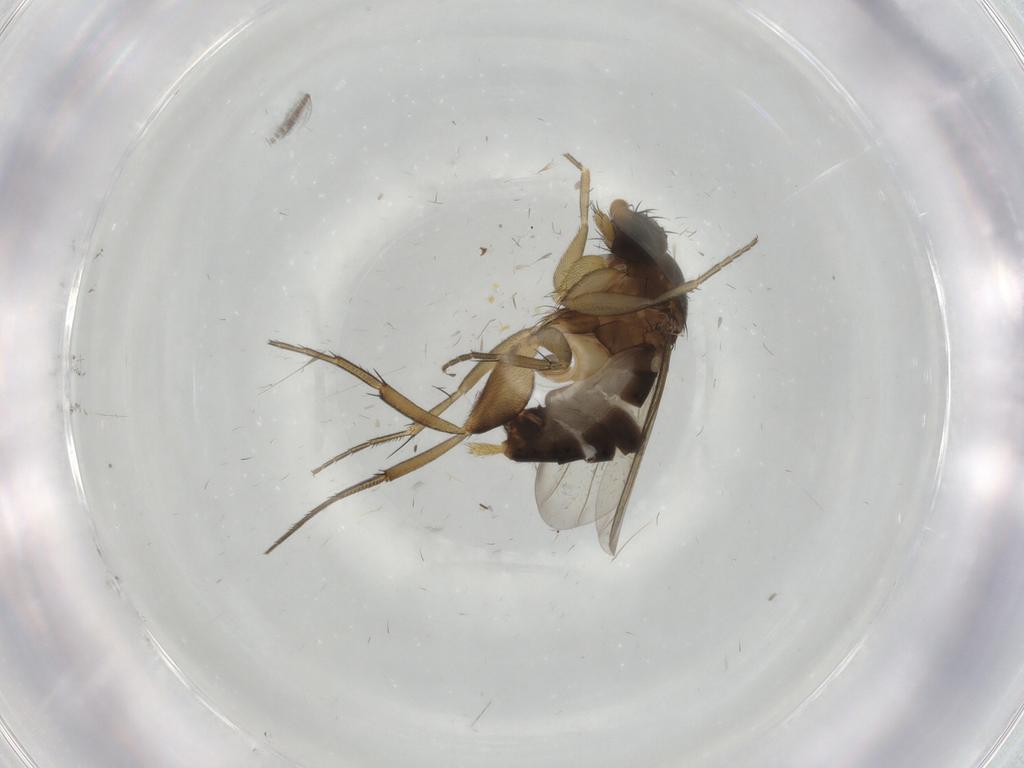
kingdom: Animalia
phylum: Arthropoda
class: Insecta
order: Diptera
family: Phoridae
